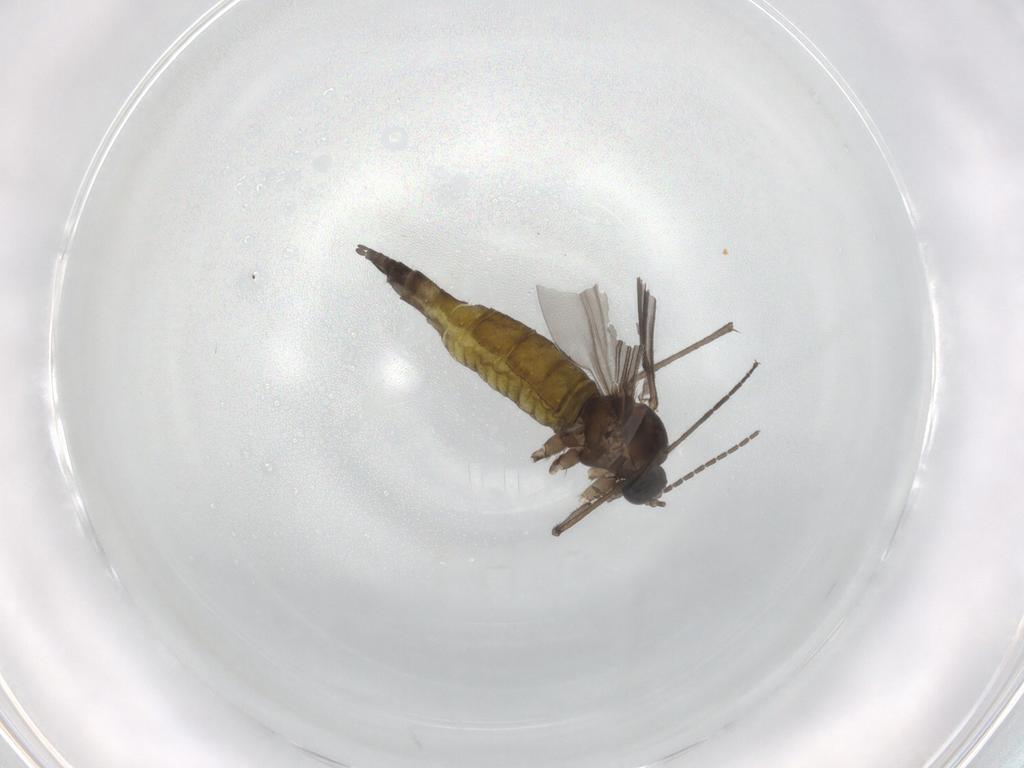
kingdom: Animalia
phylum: Arthropoda
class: Insecta
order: Diptera
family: Sciaridae
